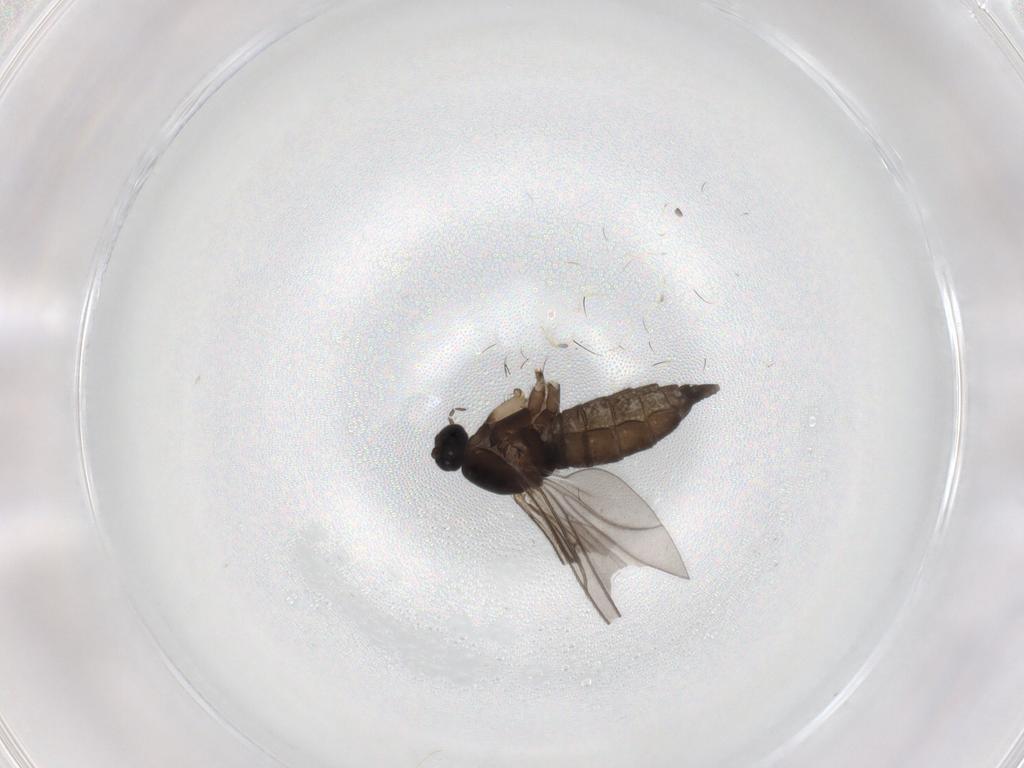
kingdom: Animalia
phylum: Arthropoda
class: Insecta
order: Diptera
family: Sciaridae
